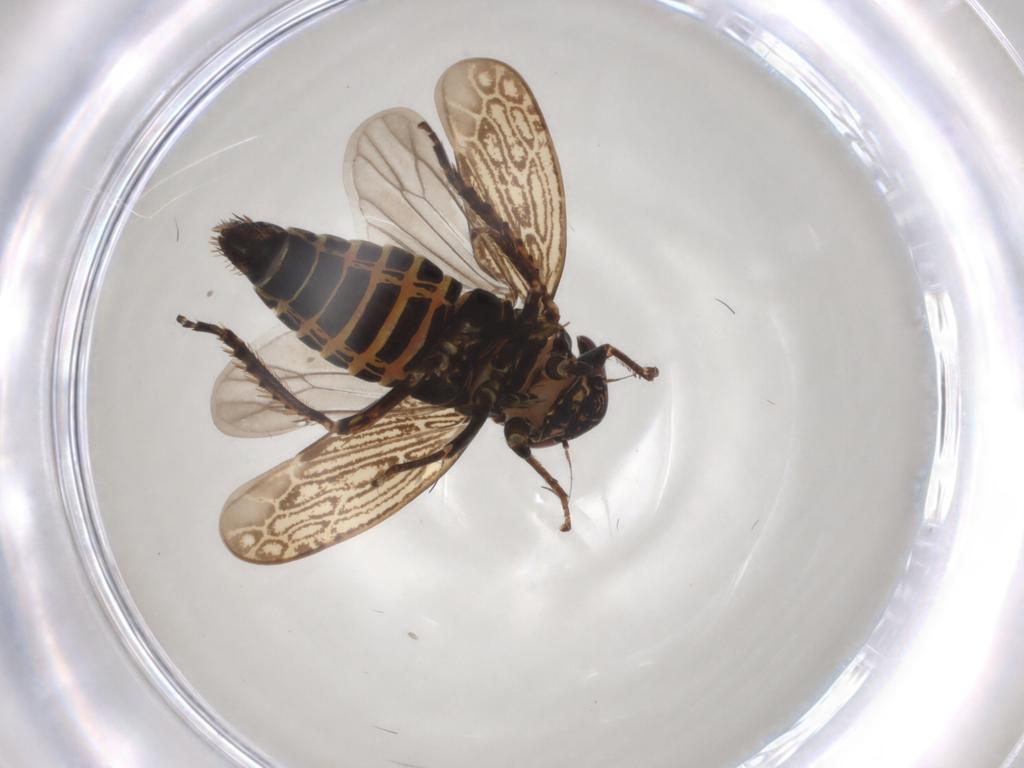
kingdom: Animalia
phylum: Arthropoda
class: Insecta
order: Hemiptera
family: Cicadellidae
